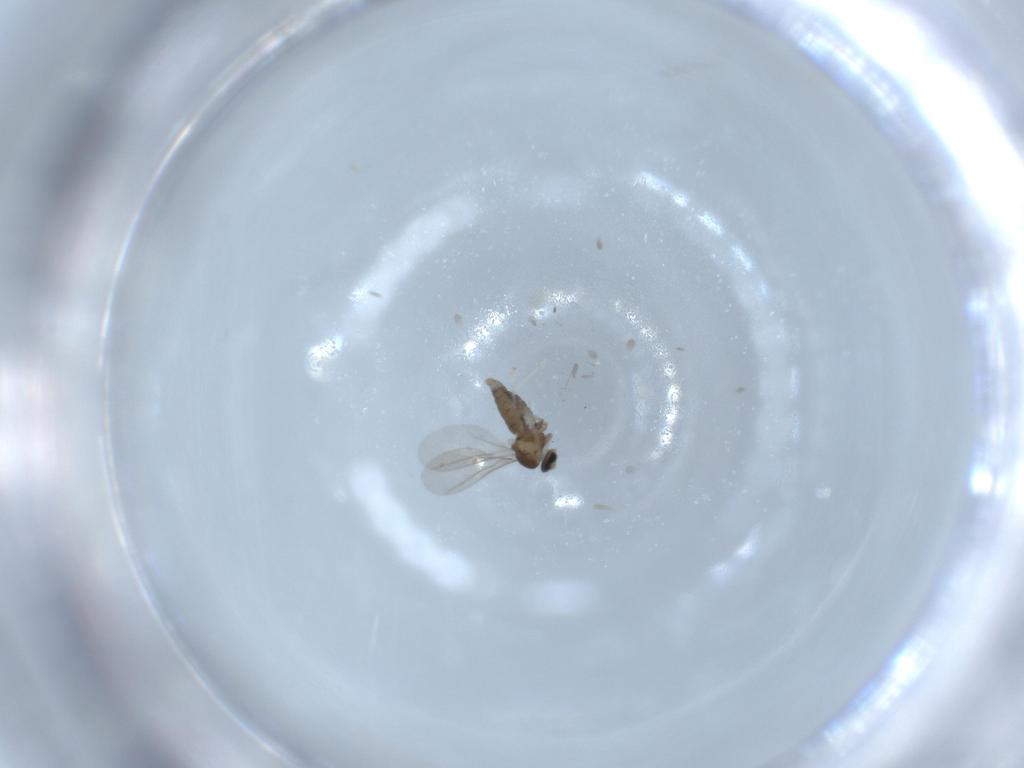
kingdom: Animalia
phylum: Arthropoda
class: Insecta
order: Diptera
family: Cecidomyiidae
